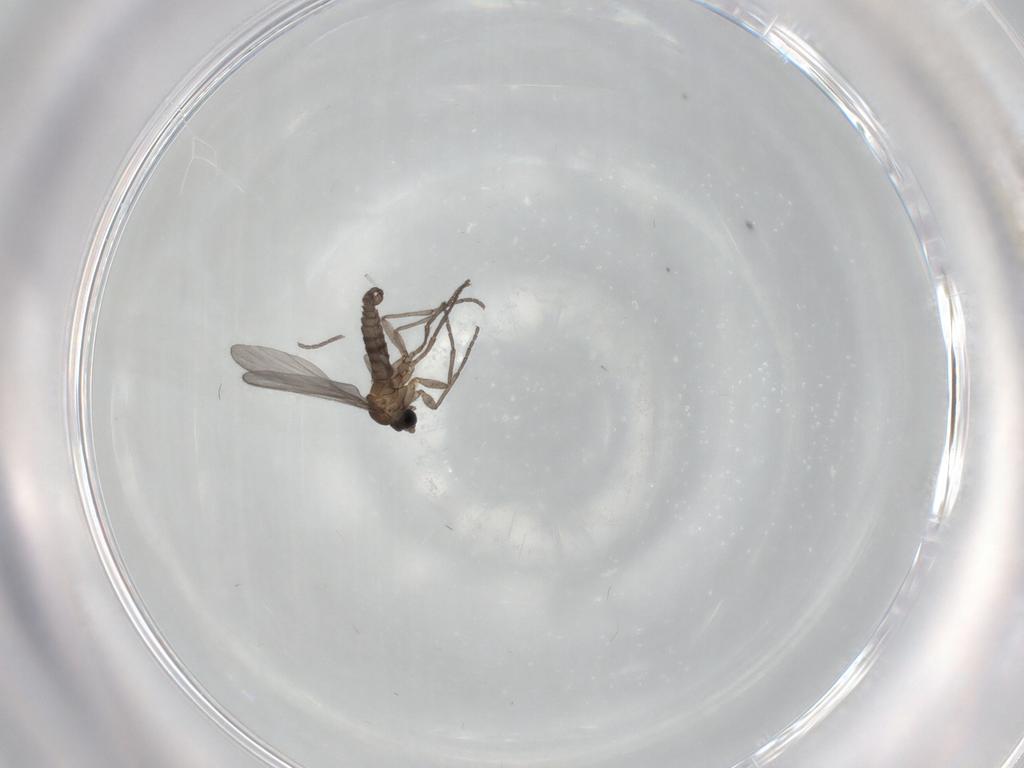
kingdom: Animalia
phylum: Arthropoda
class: Insecta
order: Diptera
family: Sciaridae
